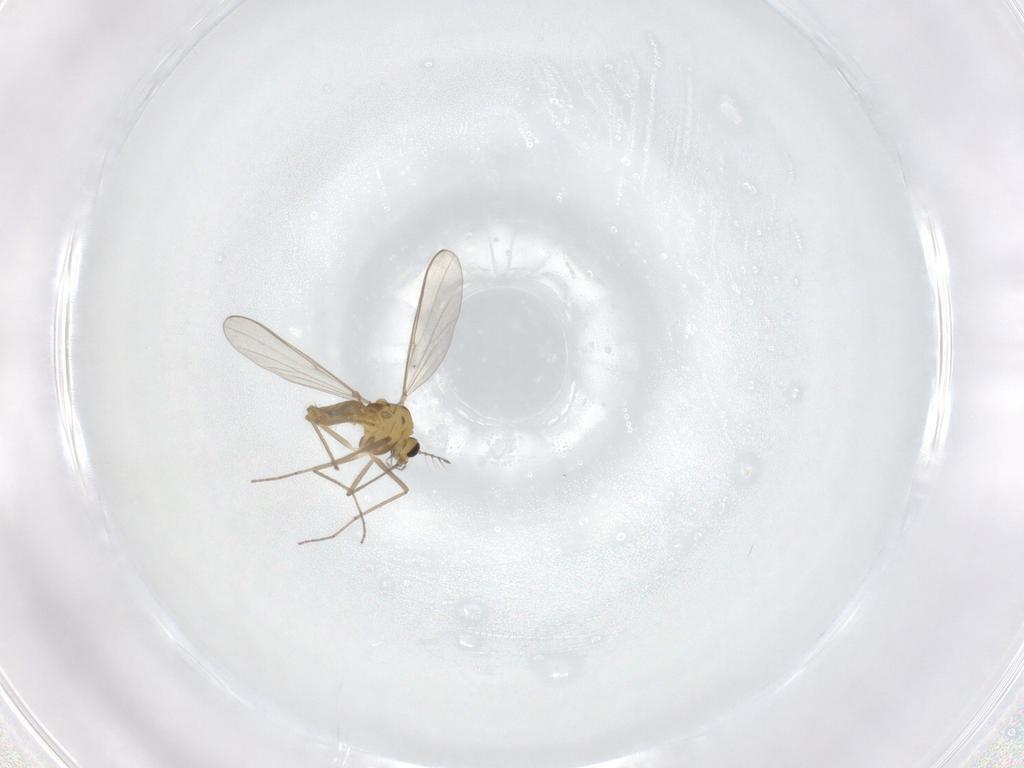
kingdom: Animalia
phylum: Arthropoda
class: Insecta
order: Diptera
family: Chironomidae
